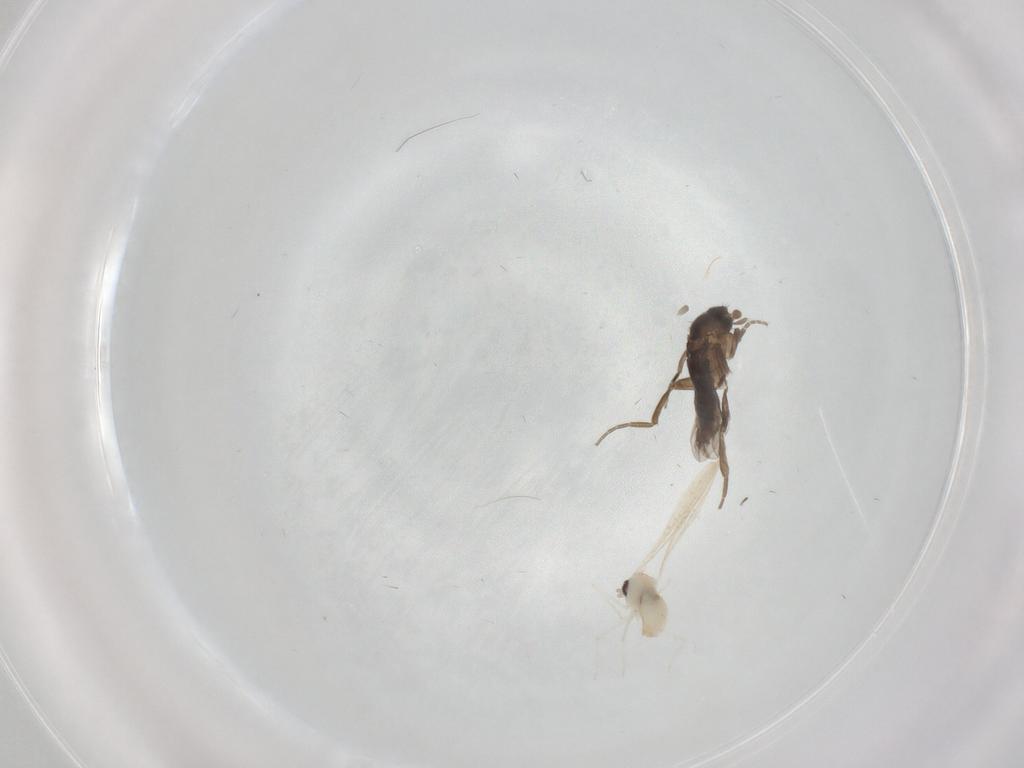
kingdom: Animalia
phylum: Arthropoda
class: Insecta
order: Diptera
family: Phoridae
